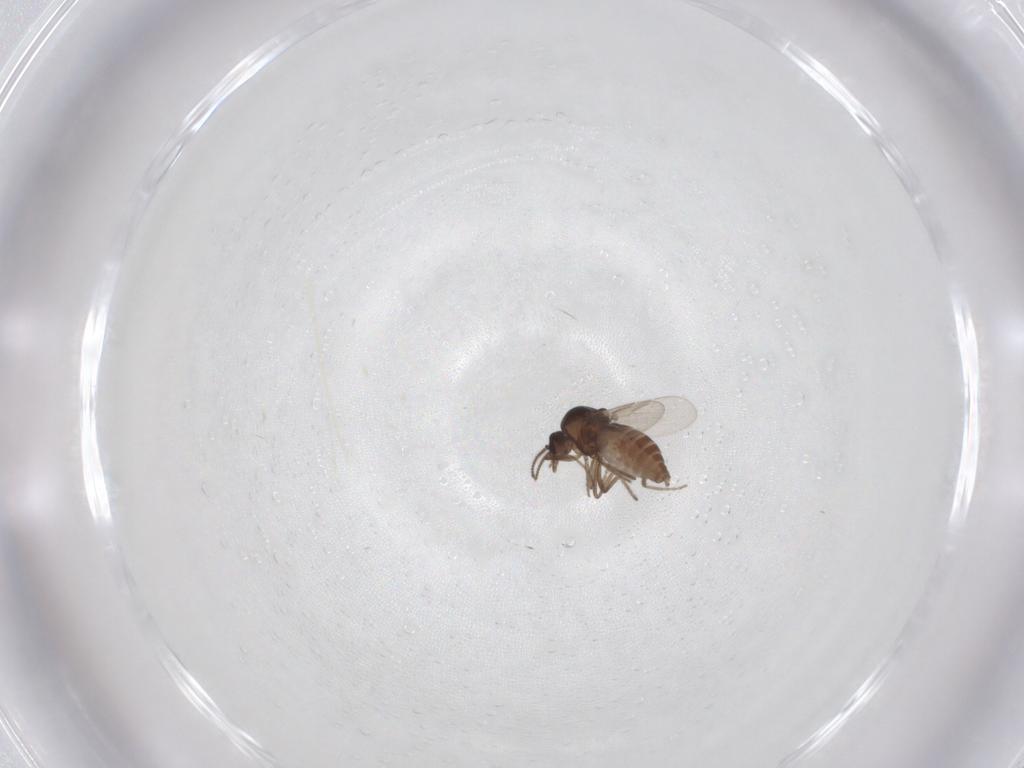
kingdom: Animalia
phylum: Arthropoda
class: Insecta
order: Diptera
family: Ceratopogonidae
